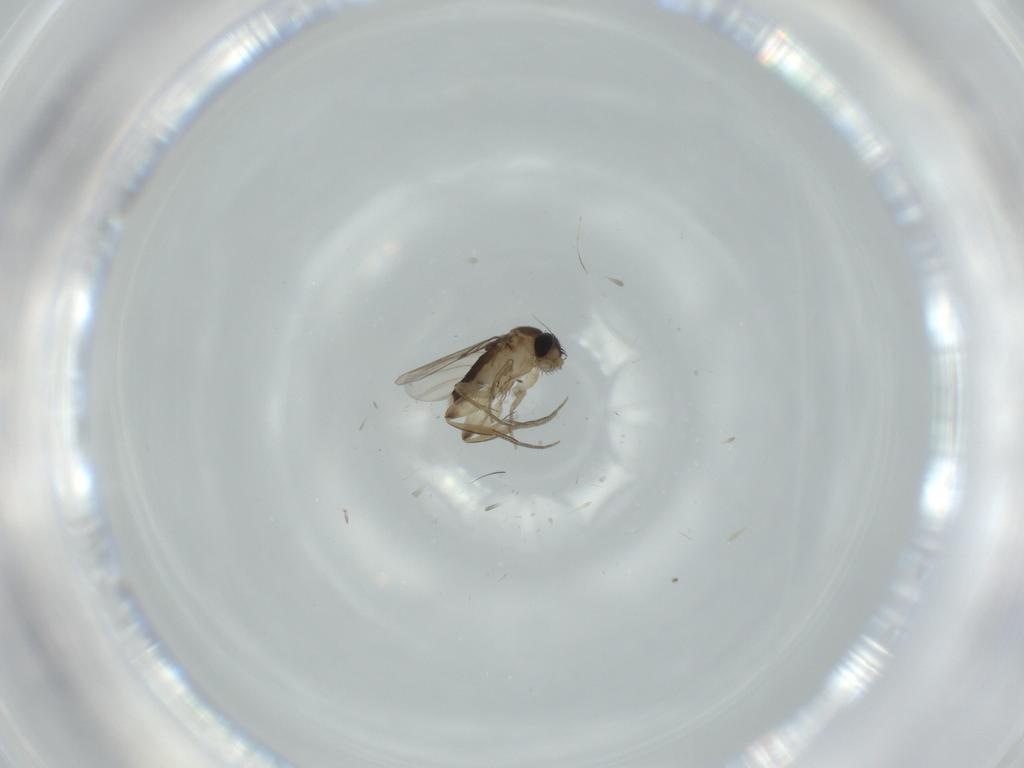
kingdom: Animalia
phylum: Arthropoda
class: Insecta
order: Diptera
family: Phoridae
